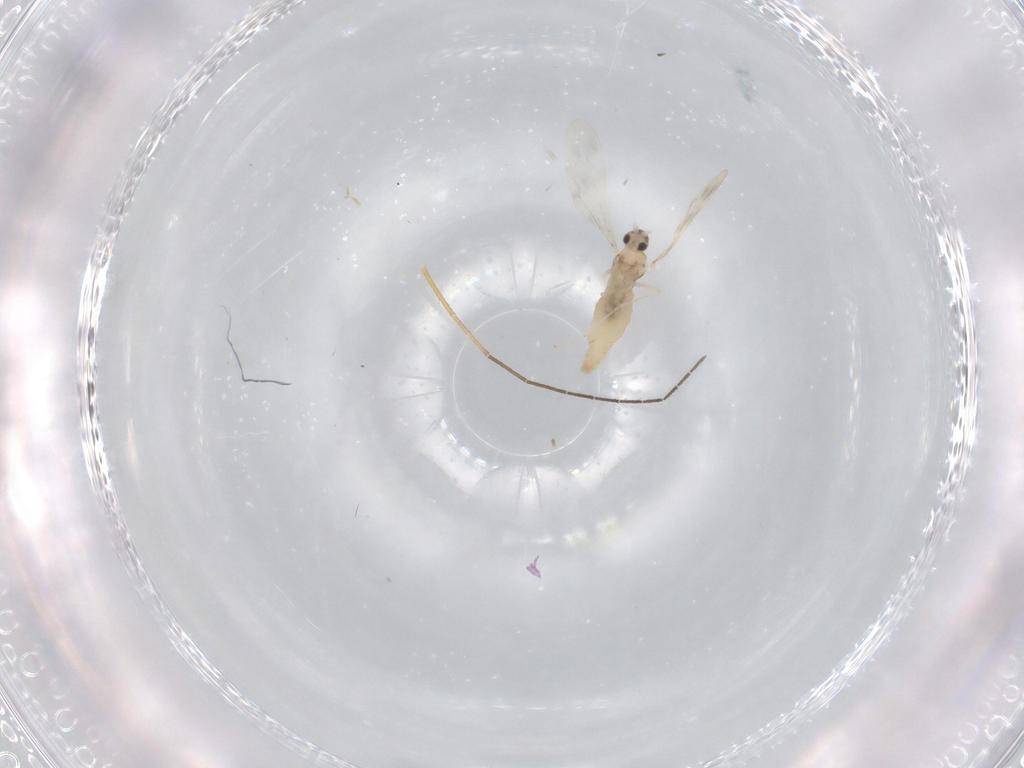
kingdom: Animalia
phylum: Arthropoda
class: Insecta
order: Diptera
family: Cecidomyiidae
